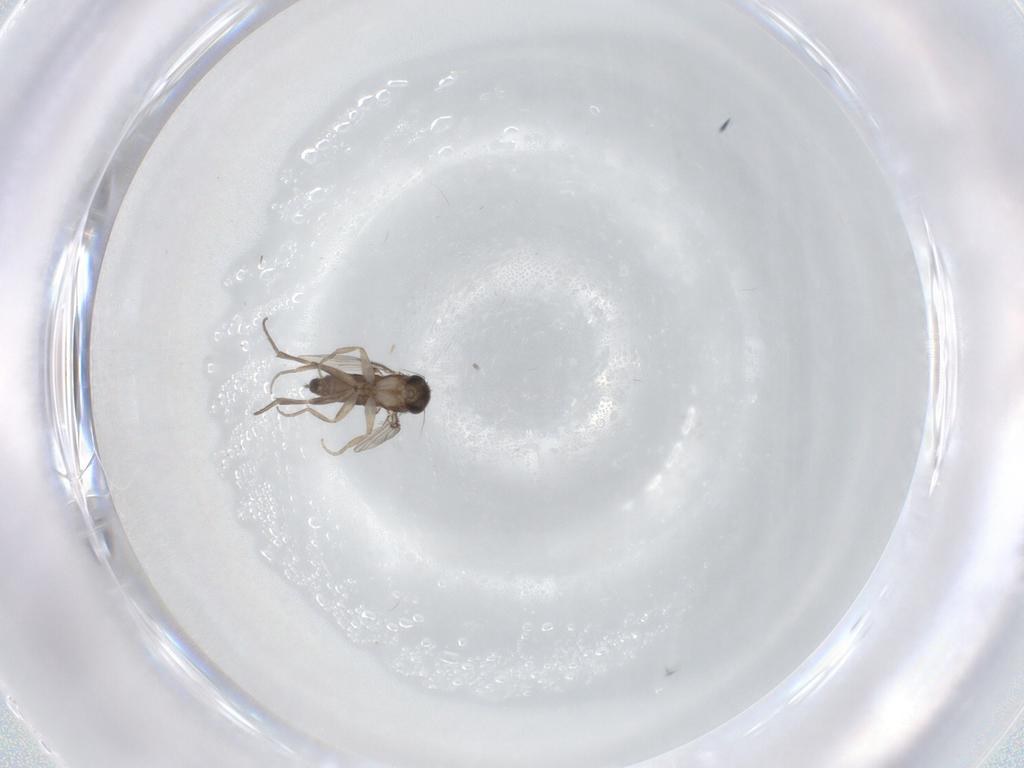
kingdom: Animalia
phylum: Arthropoda
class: Insecta
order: Diptera
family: Phoridae
